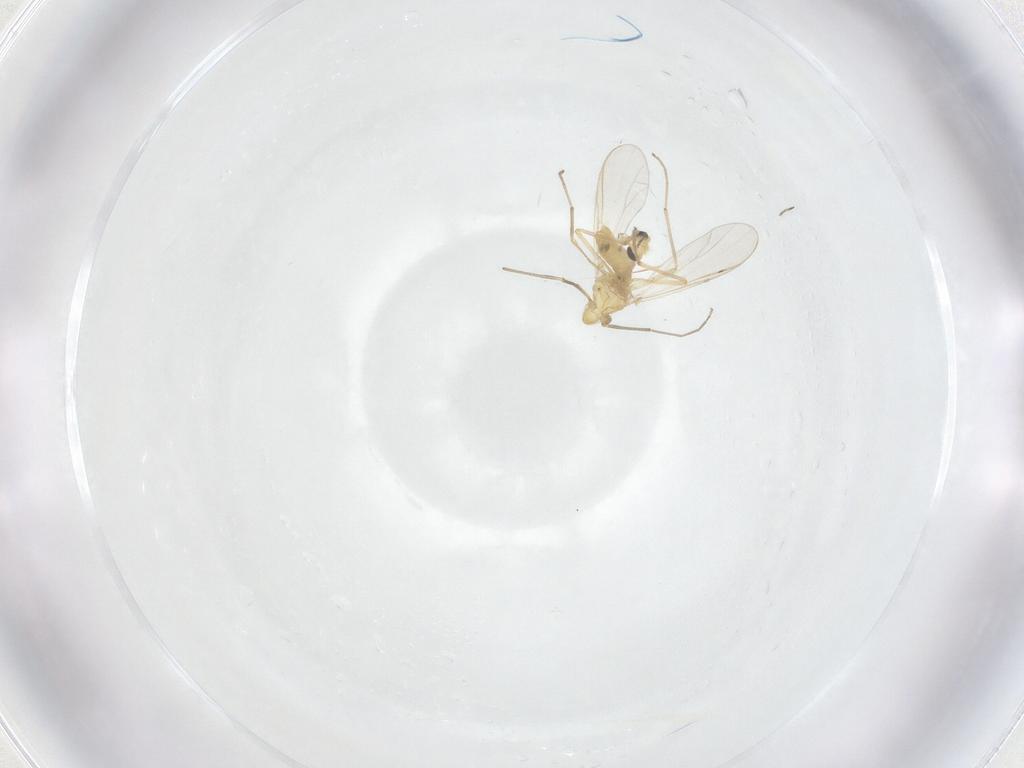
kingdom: Animalia
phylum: Arthropoda
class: Insecta
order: Diptera
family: Chironomidae
